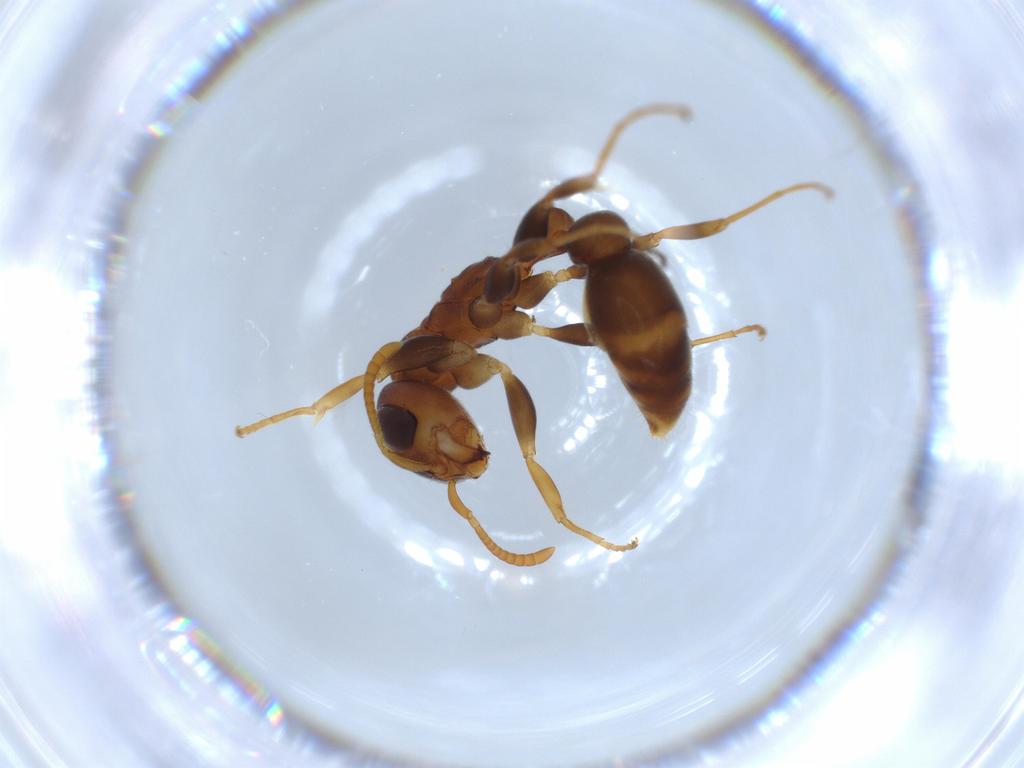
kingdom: Animalia
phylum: Arthropoda
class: Insecta
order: Hymenoptera
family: Formicidae
